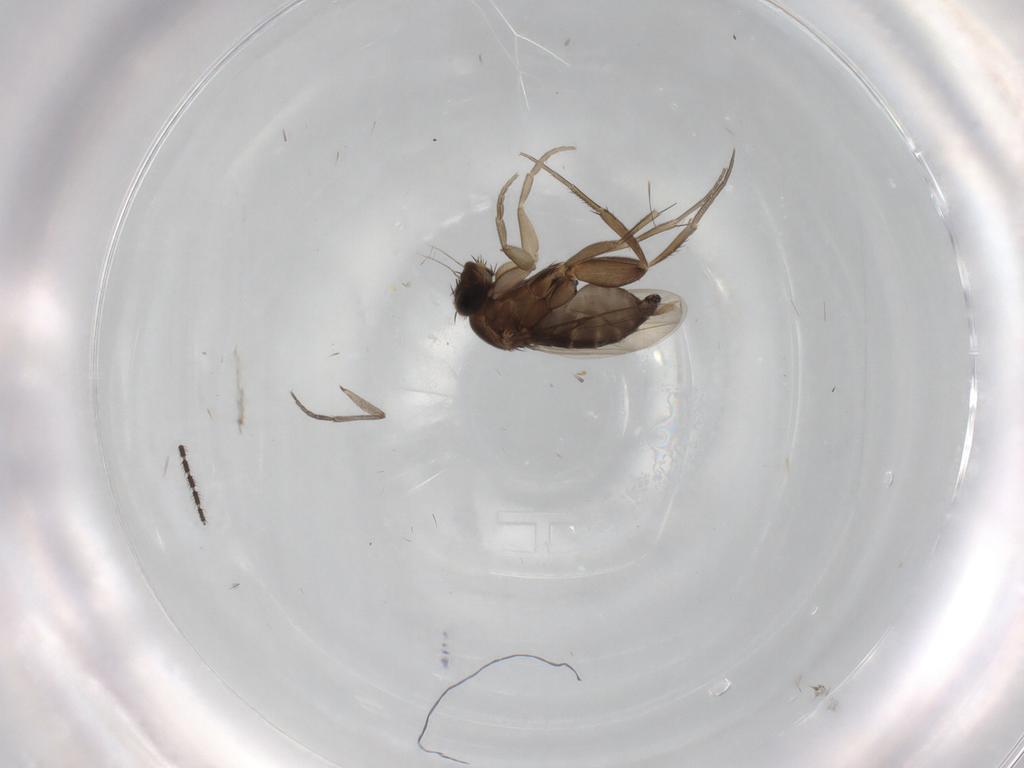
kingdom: Animalia
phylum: Arthropoda
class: Insecta
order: Diptera
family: Phoridae
